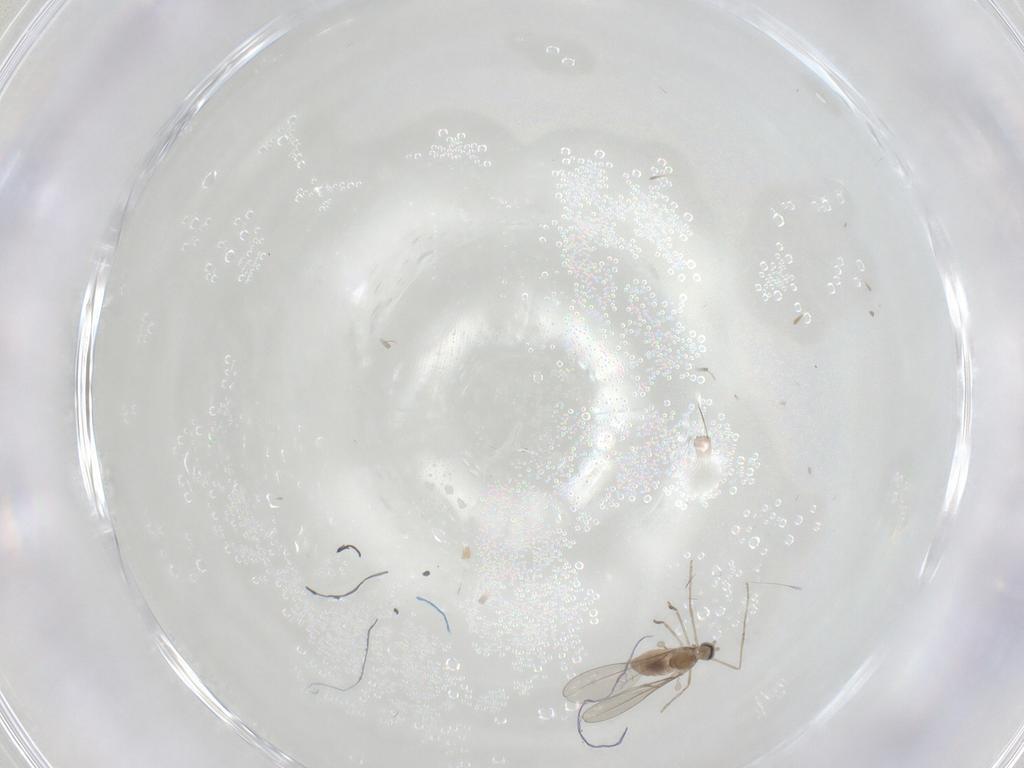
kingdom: Animalia
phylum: Arthropoda
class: Insecta
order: Diptera
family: Cecidomyiidae
